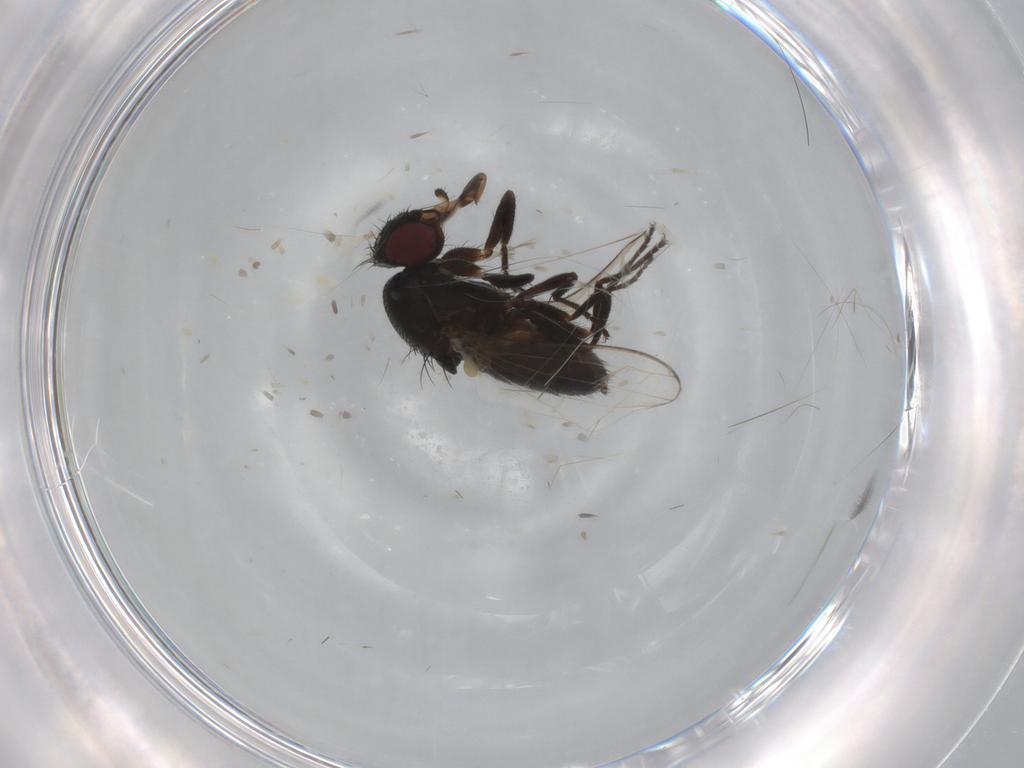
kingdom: Animalia
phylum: Arthropoda
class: Insecta
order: Diptera
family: Milichiidae
